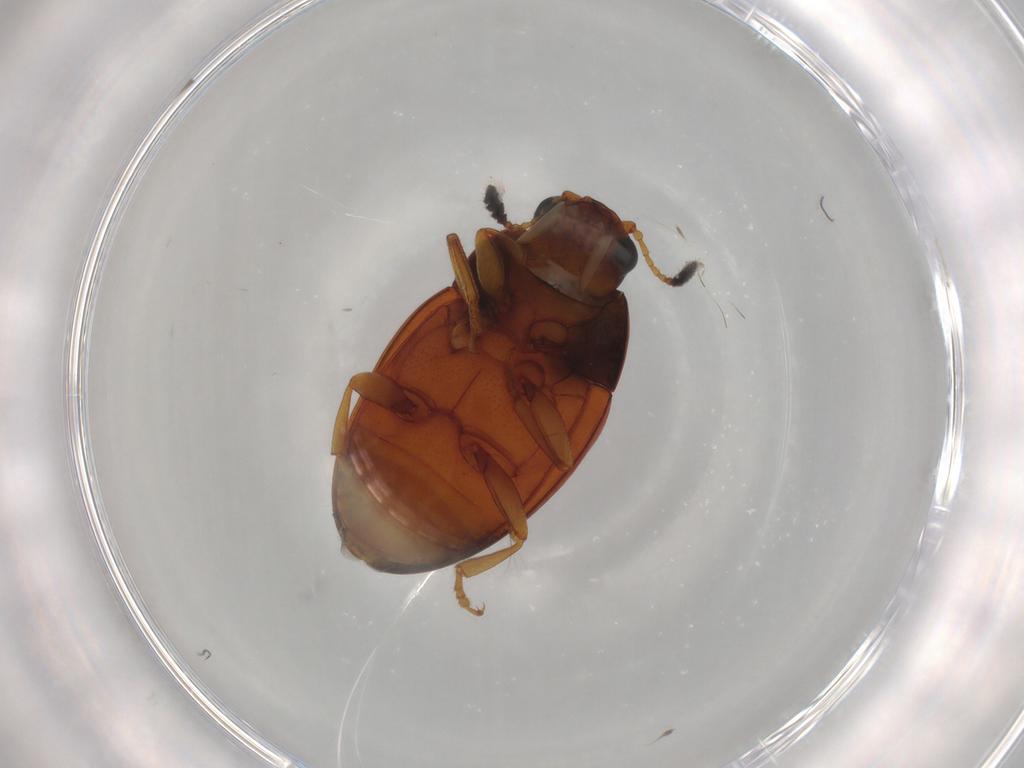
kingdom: Animalia
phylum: Arthropoda
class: Insecta
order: Coleoptera
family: Erotylidae
